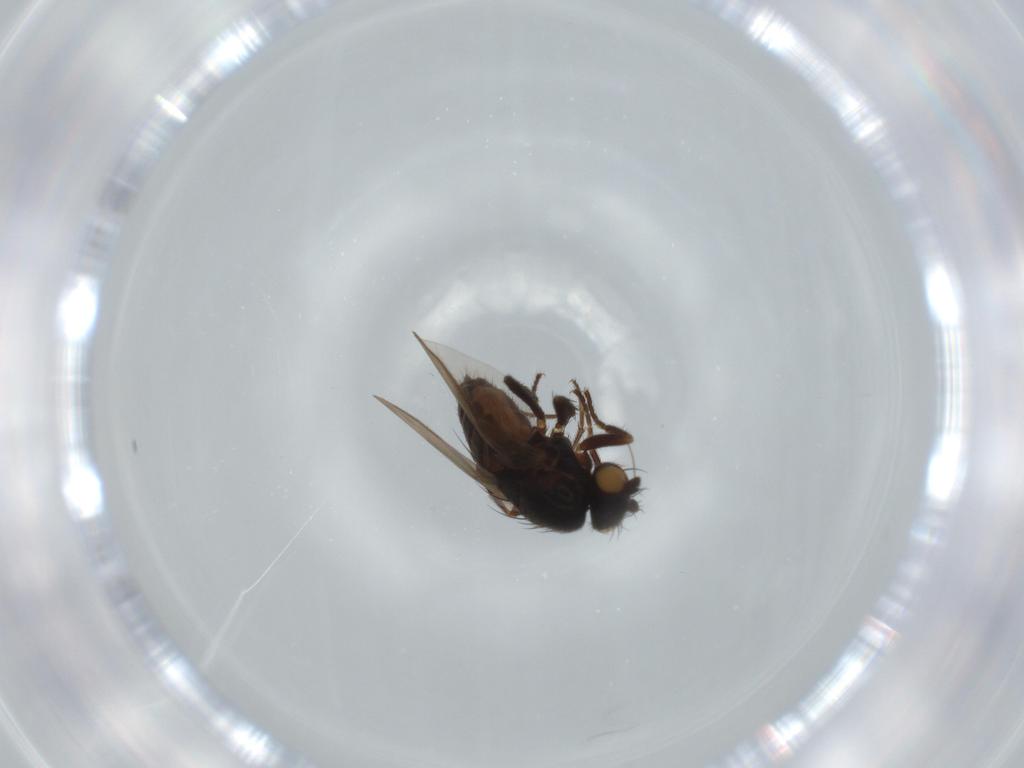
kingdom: Animalia
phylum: Arthropoda
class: Insecta
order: Diptera
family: Sphaeroceridae
